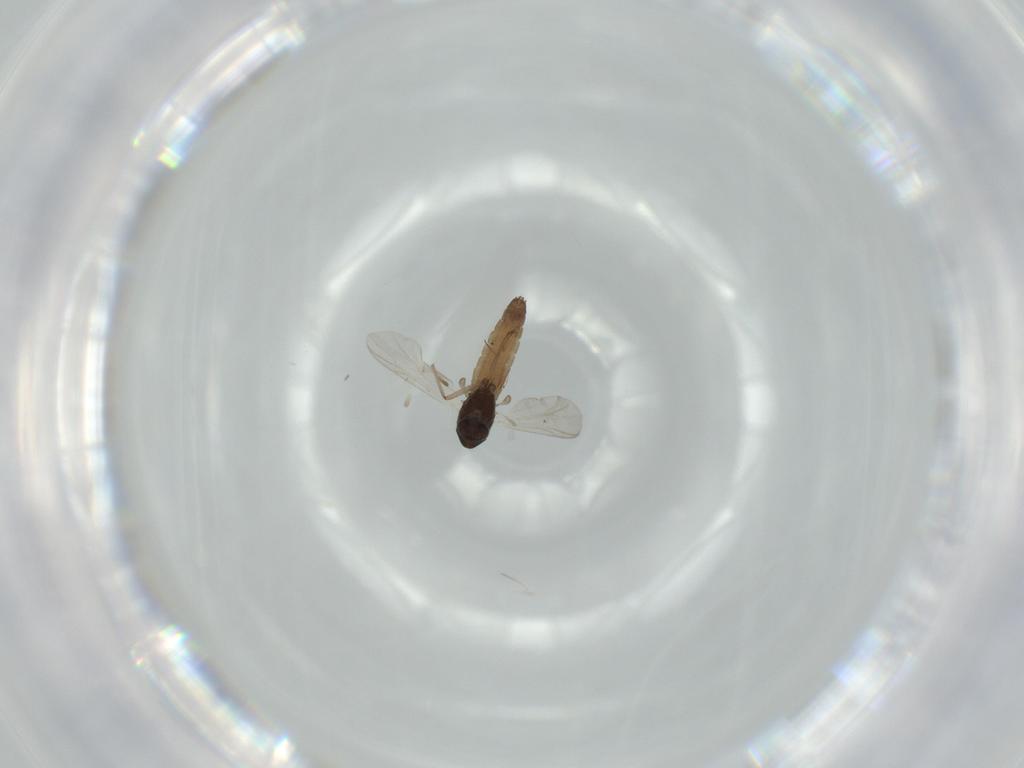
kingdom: Animalia
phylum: Arthropoda
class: Insecta
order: Diptera
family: Chironomidae
